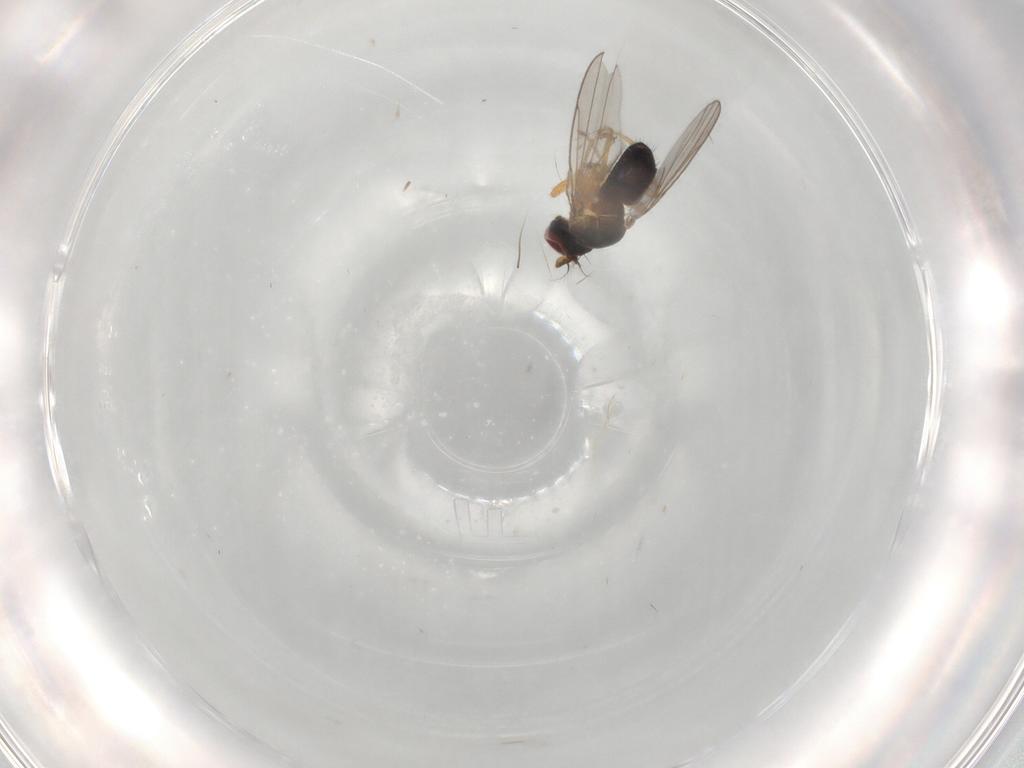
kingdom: Animalia
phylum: Arthropoda
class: Insecta
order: Diptera
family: Ephydridae
